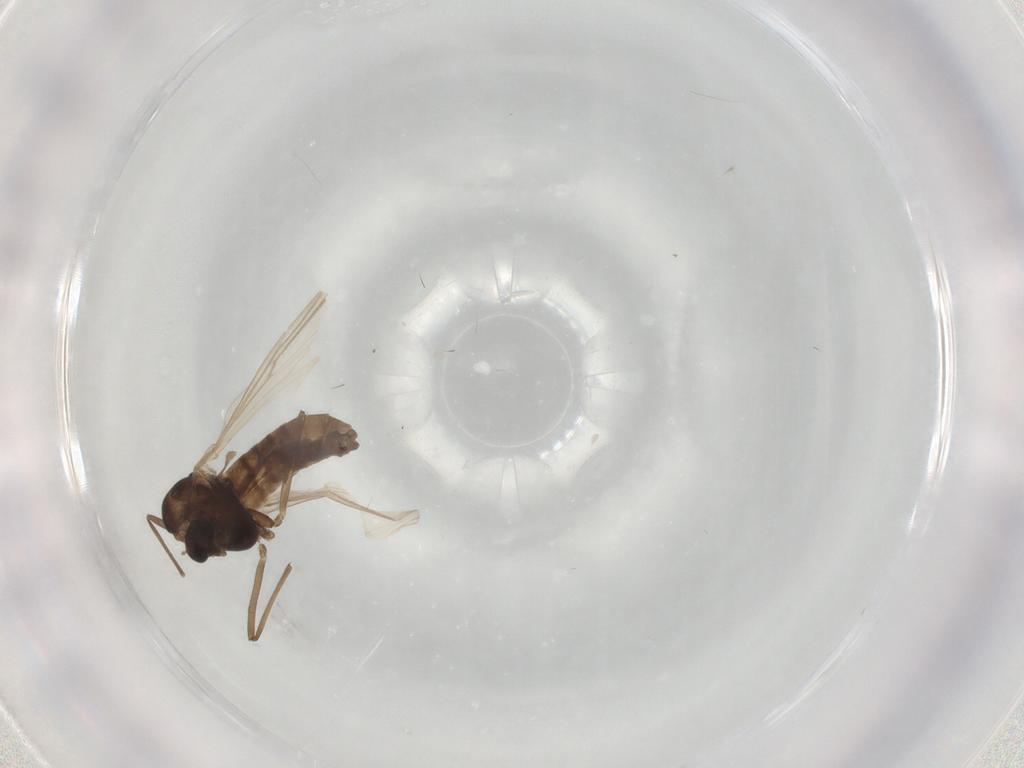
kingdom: Animalia
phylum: Arthropoda
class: Insecta
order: Diptera
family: Chironomidae
